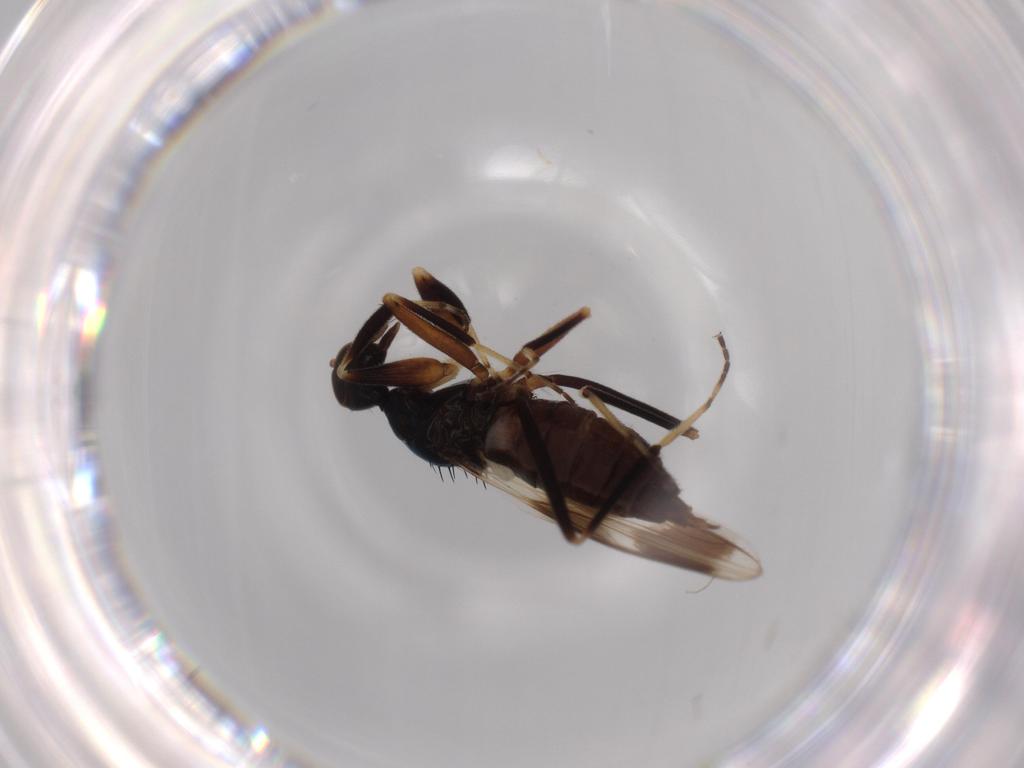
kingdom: Animalia
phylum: Arthropoda
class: Insecta
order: Diptera
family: Hybotidae
